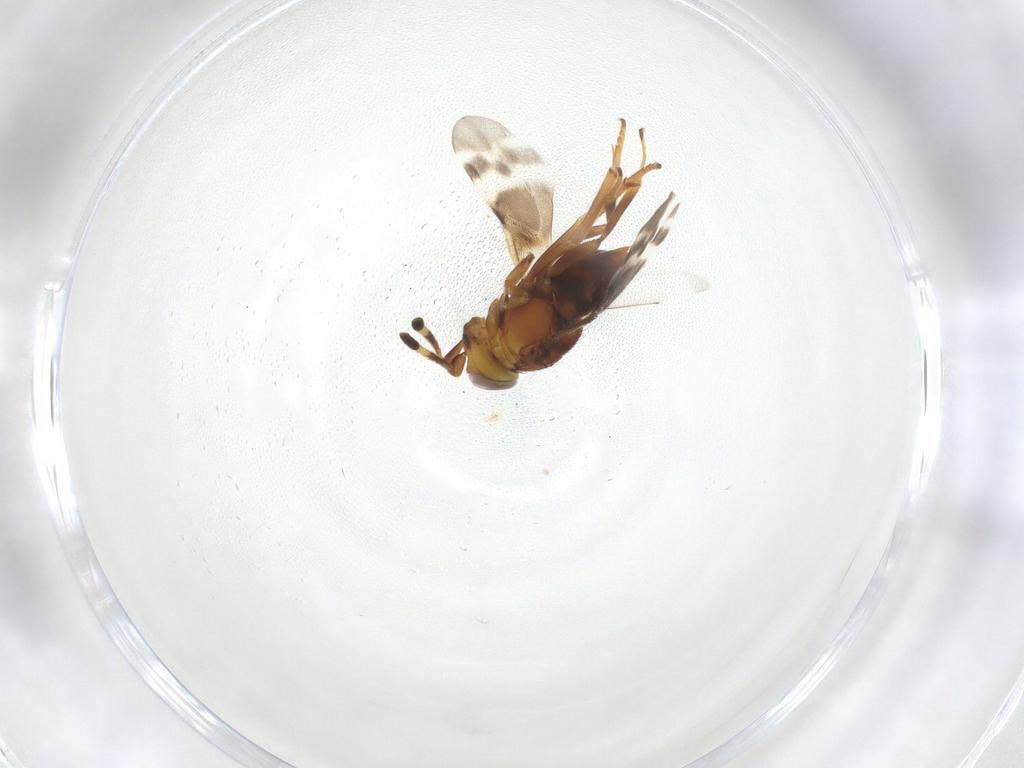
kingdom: Animalia
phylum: Arthropoda
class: Insecta
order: Hymenoptera
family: Encyrtidae
